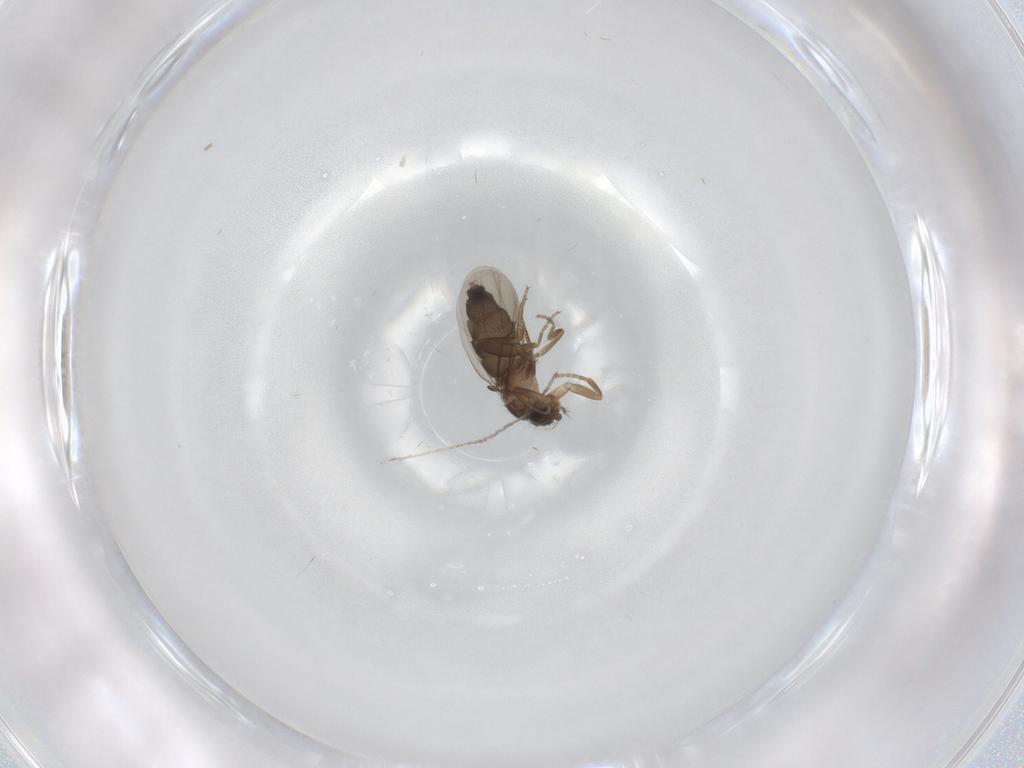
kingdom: Animalia
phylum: Arthropoda
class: Insecta
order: Diptera
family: Phoridae
